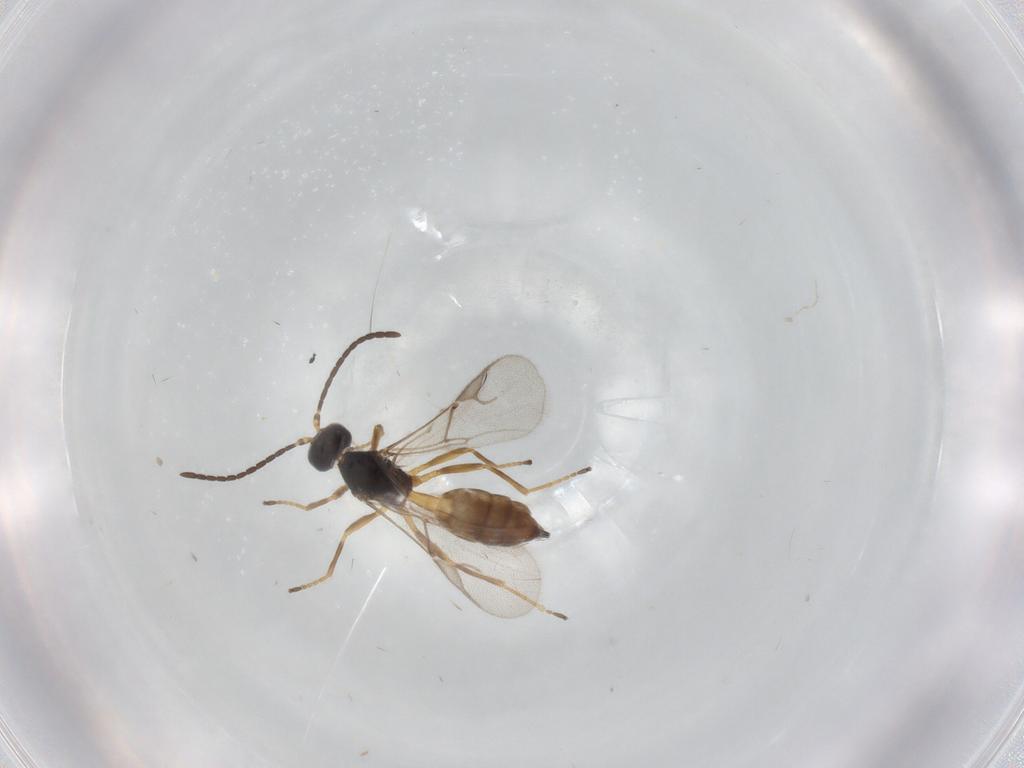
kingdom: Animalia
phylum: Arthropoda
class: Insecta
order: Hymenoptera
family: Braconidae
